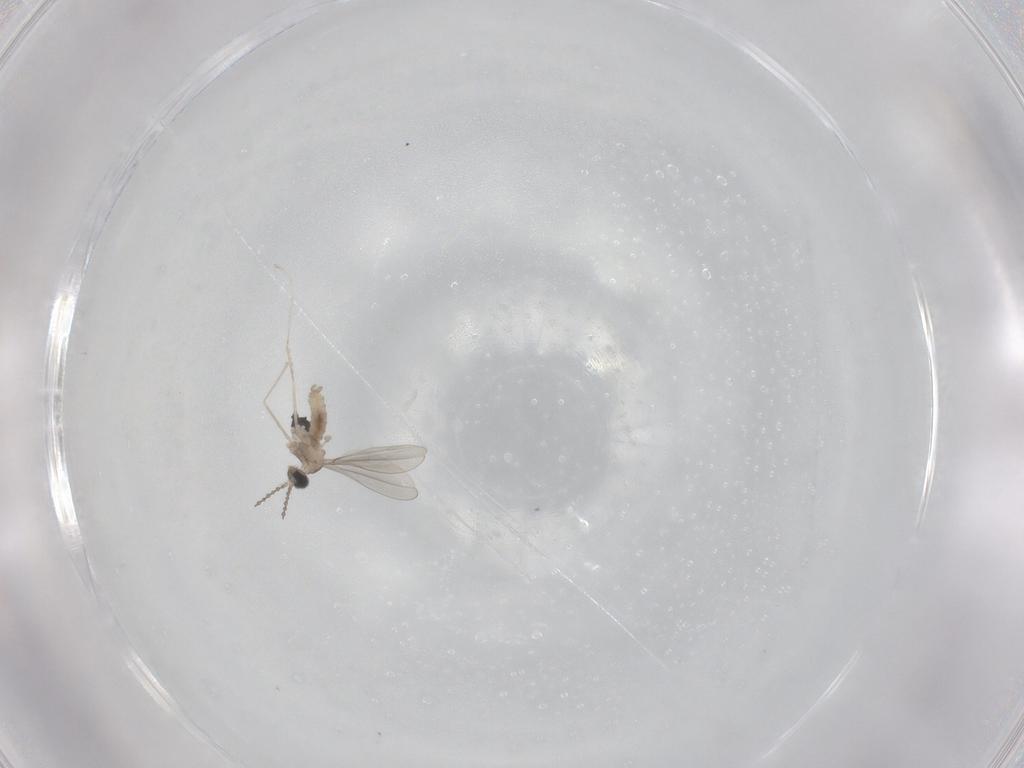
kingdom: Animalia
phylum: Arthropoda
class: Insecta
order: Diptera
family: Cecidomyiidae
